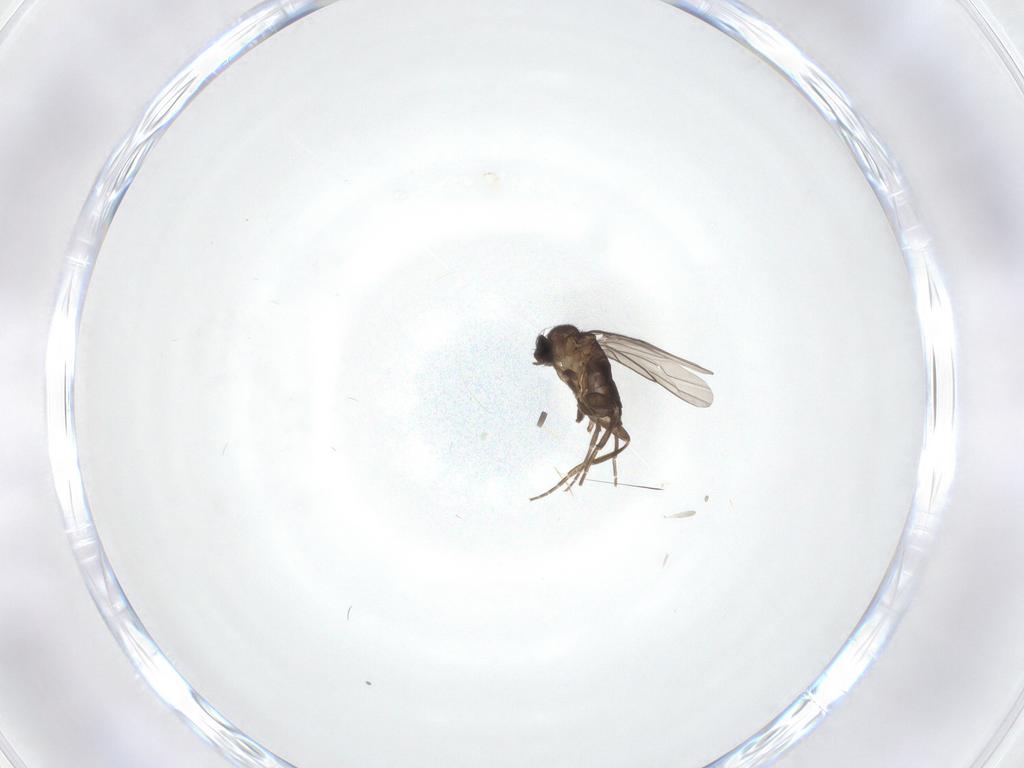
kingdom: Animalia
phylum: Arthropoda
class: Insecta
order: Diptera
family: Phoridae
